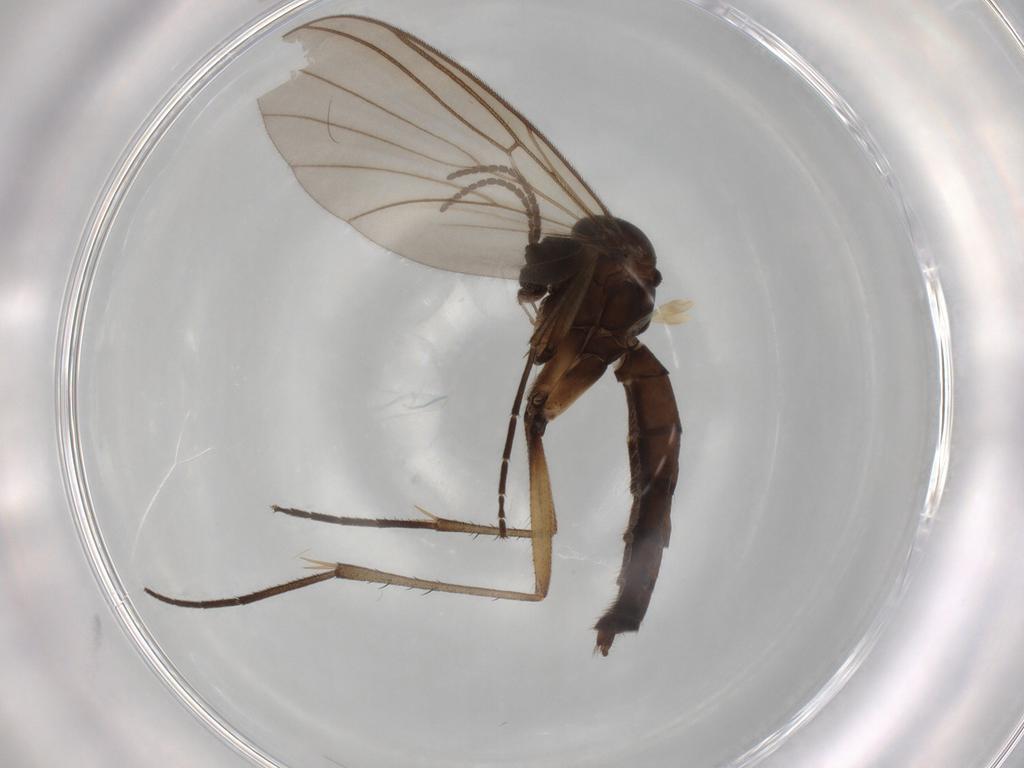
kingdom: Animalia
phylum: Arthropoda
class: Insecta
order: Diptera
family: Mycetophilidae
